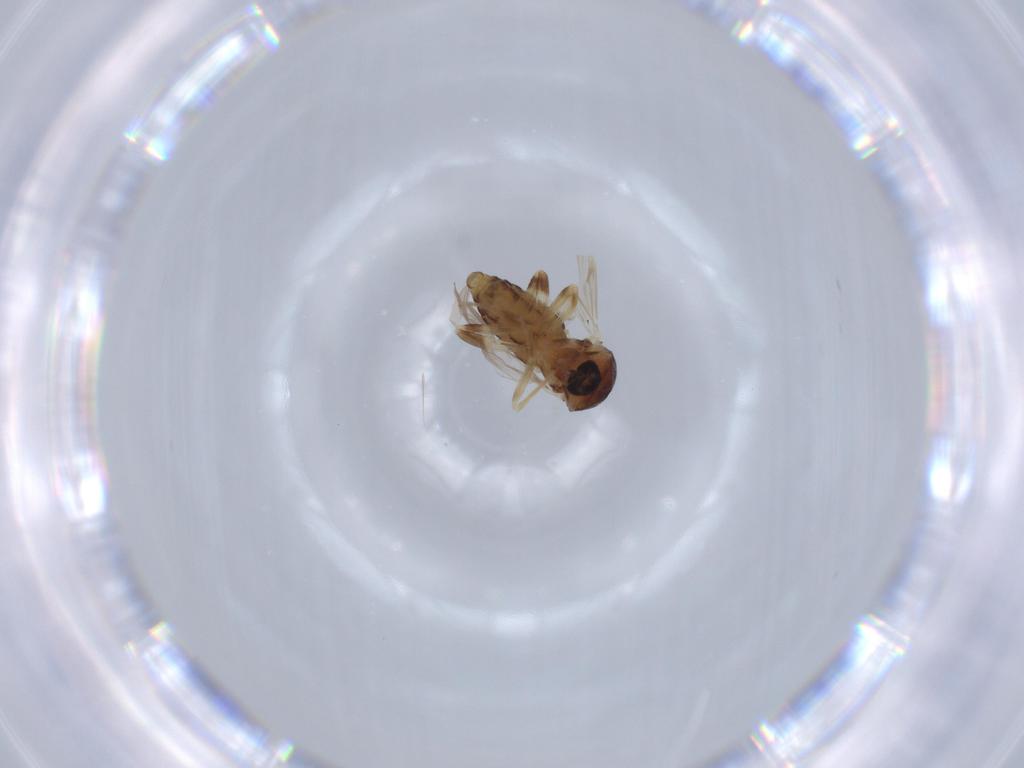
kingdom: Animalia
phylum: Arthropoda
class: Insecta
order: Diptera
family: Ceratopogonidae
